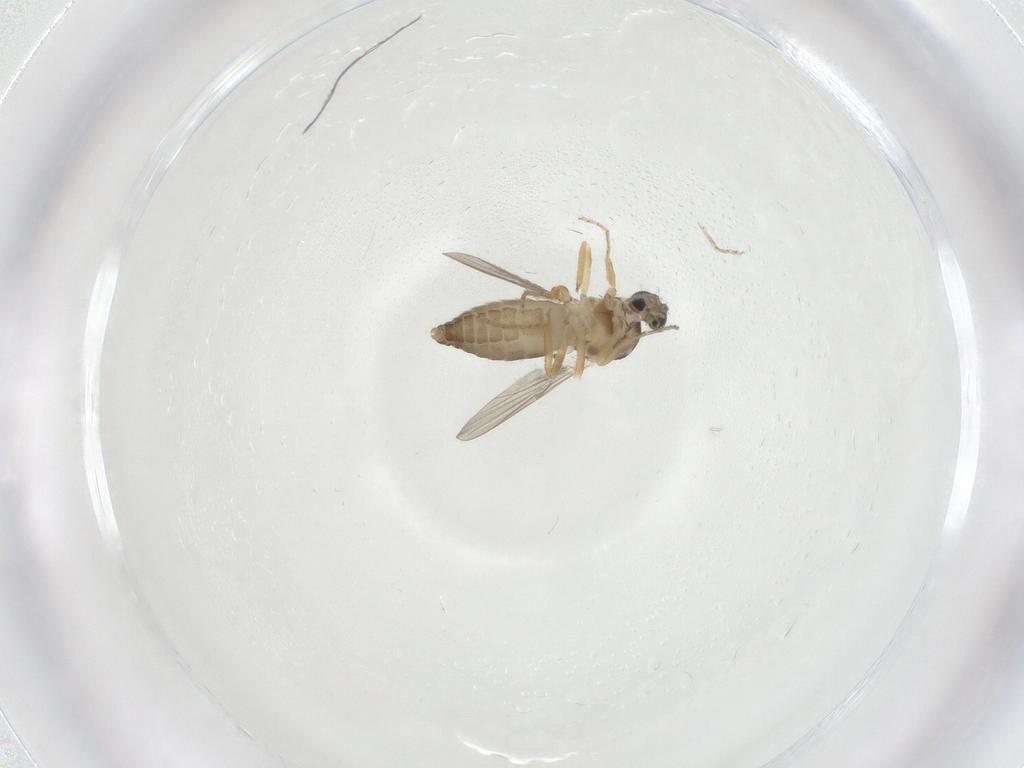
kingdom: Animalia
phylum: Arthropoda
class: Insecta
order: Diptera
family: Ceratopogonidae
